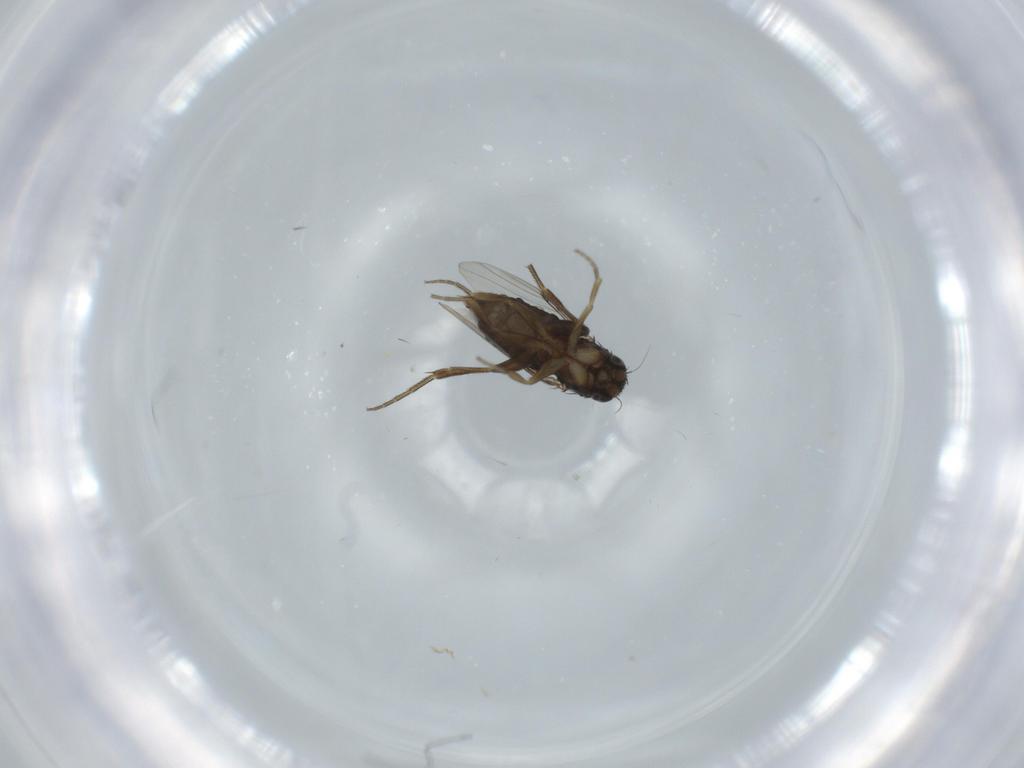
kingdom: Animalia
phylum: Arthropoda
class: Insecta
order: Diptera
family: Phoridae
